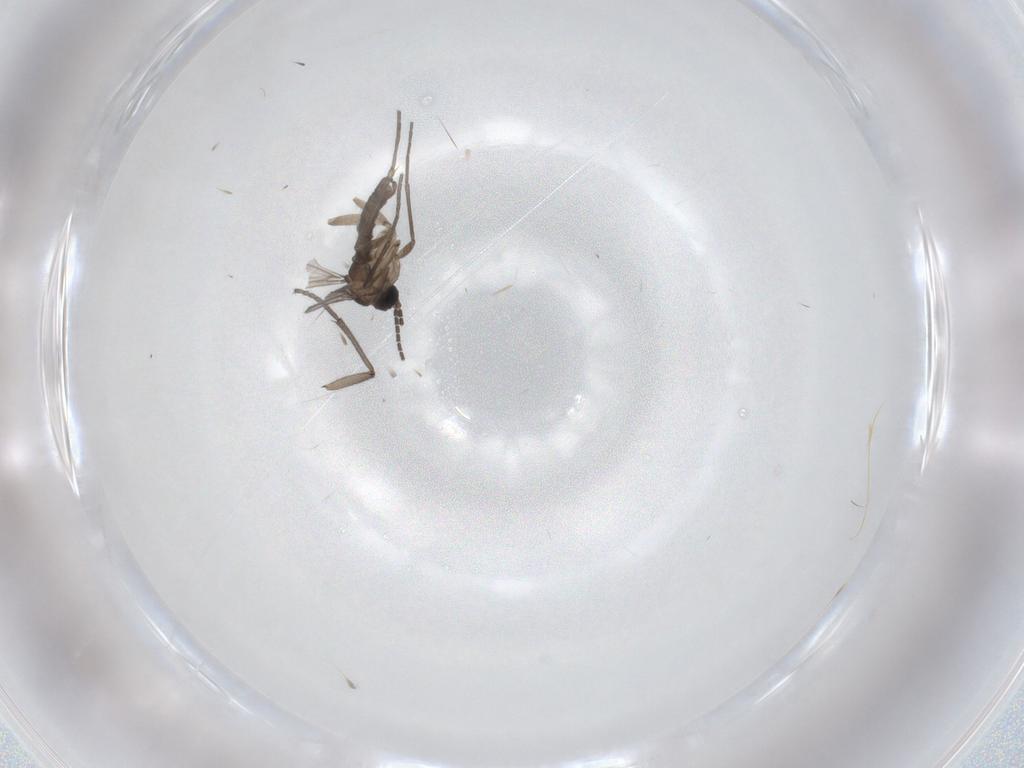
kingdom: Animalia
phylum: Arthropoda
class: Insecta
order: Diptera
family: Sciaridae
